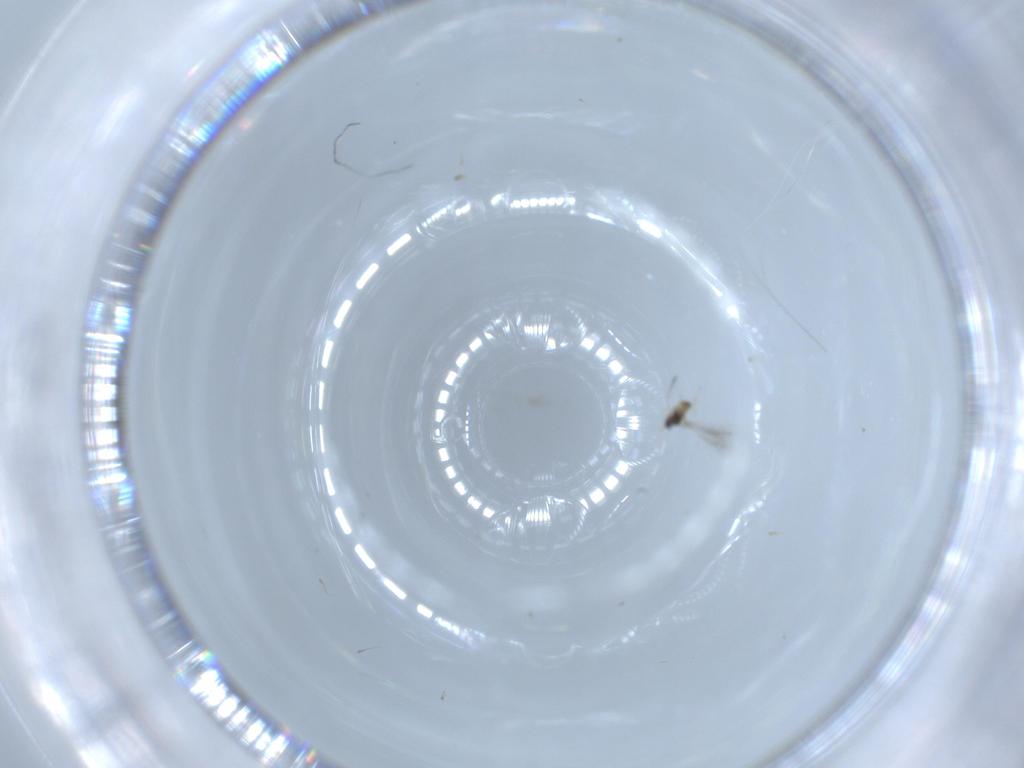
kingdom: Animalia
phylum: Arthropoda
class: Insecta
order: Hymenoptera
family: Mymaridae
